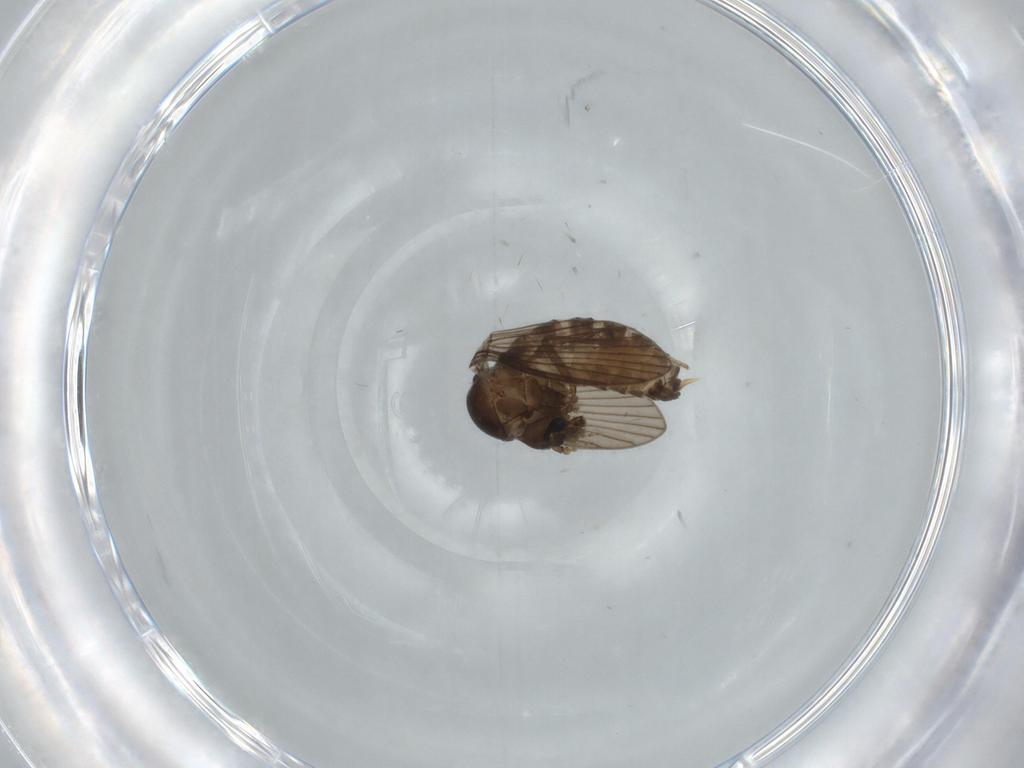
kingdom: Animalia
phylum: Arthropoda
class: Insecta
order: Diptera
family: Psychodidae
